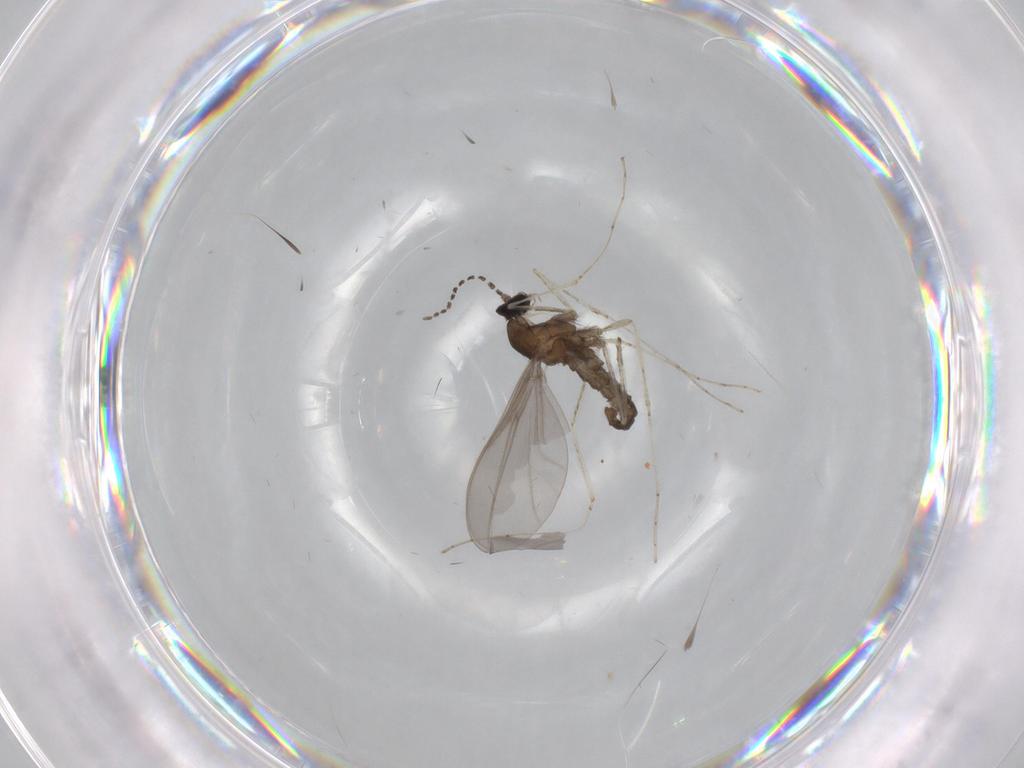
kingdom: Animalia
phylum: Arthropoda
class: Insecta
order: Diptera
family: Cecidomyiidae
